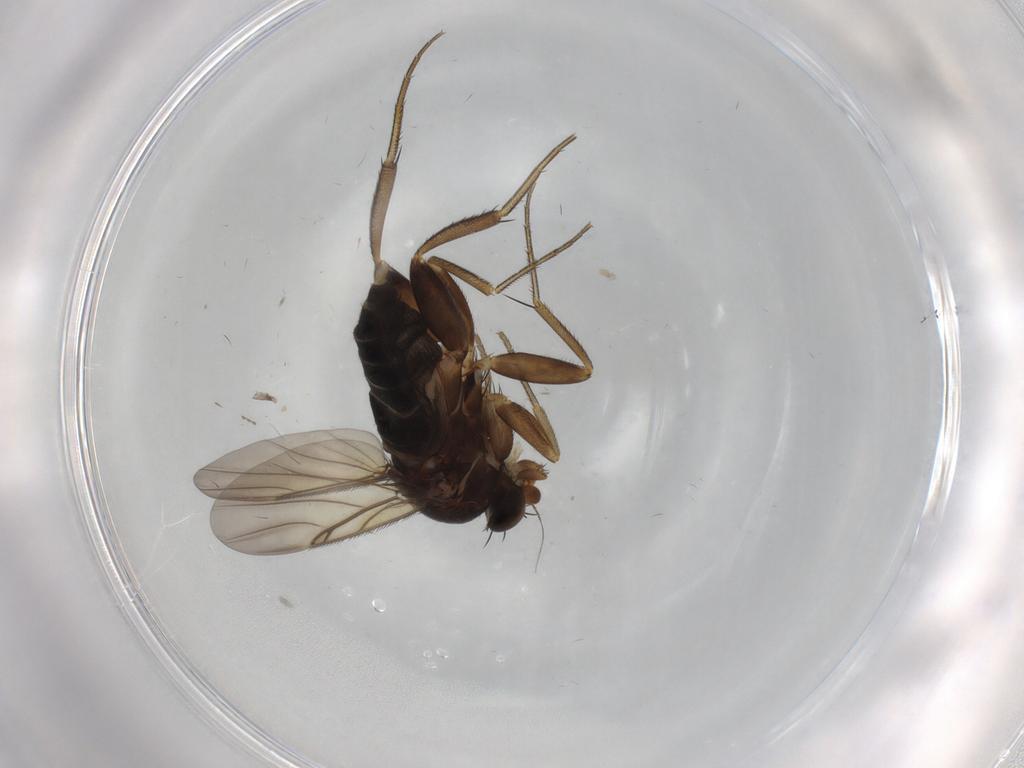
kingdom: Animalia
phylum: Arthropoda
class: Insecta
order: Diptera
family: Phoridae
